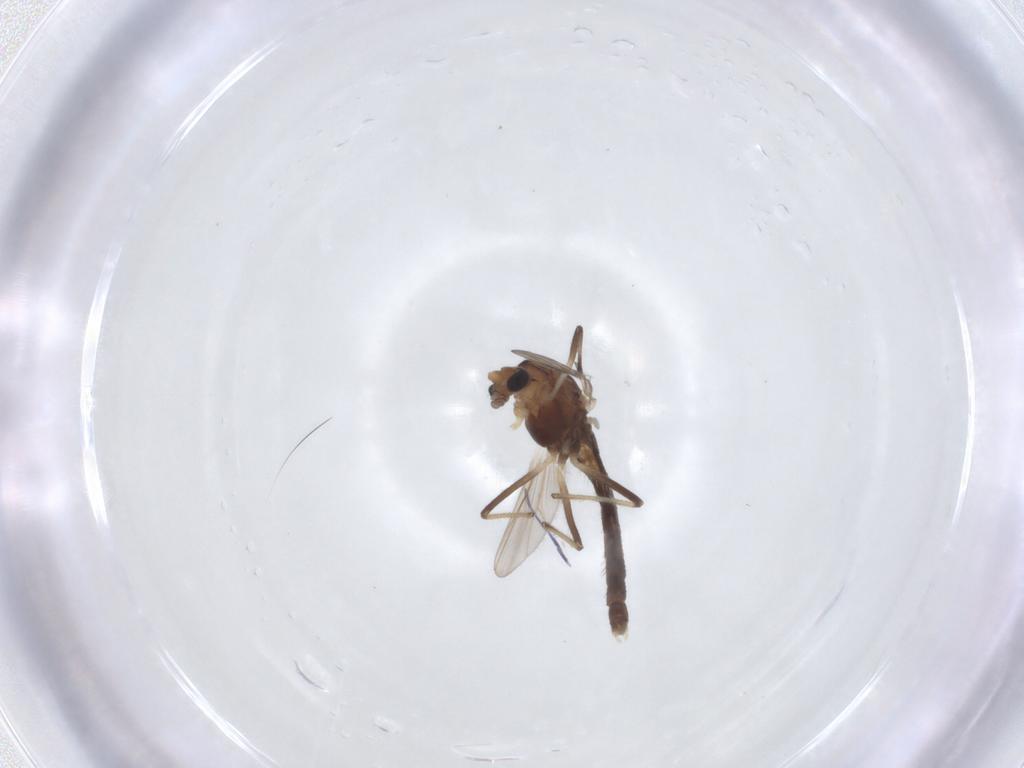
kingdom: Animalia
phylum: Arthropoda
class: Insecta
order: Diptera
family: Chironomidae
